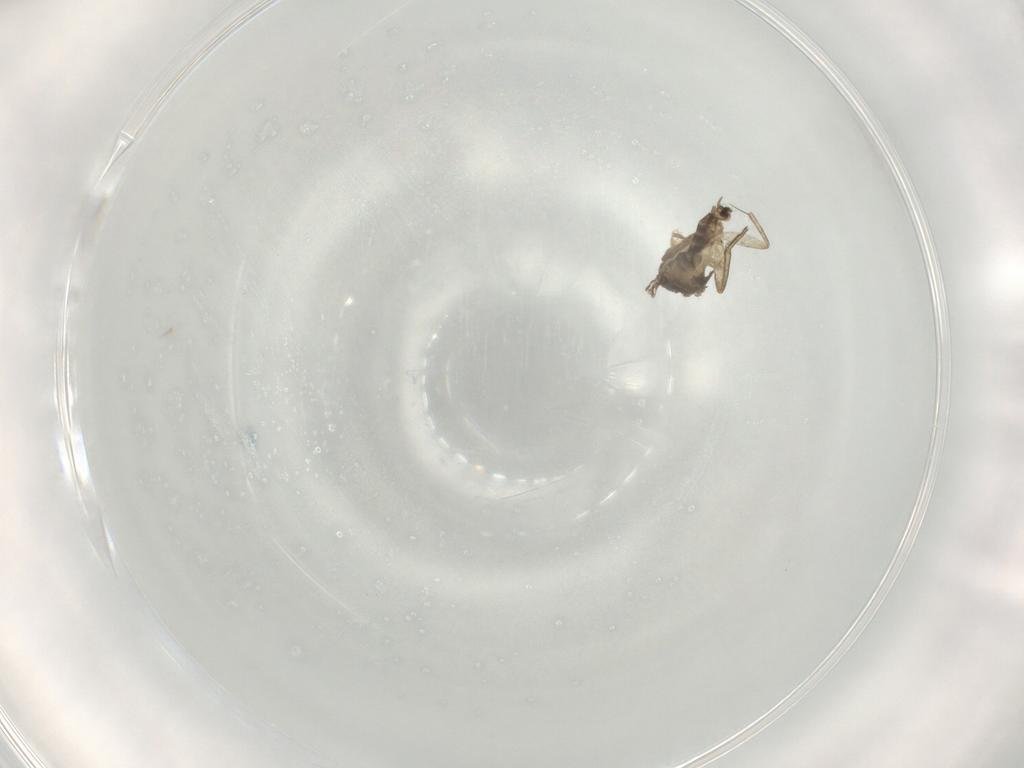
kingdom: Animalia
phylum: Arthropoda
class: Insecta
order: Diptera
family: Ceratopogonidae
